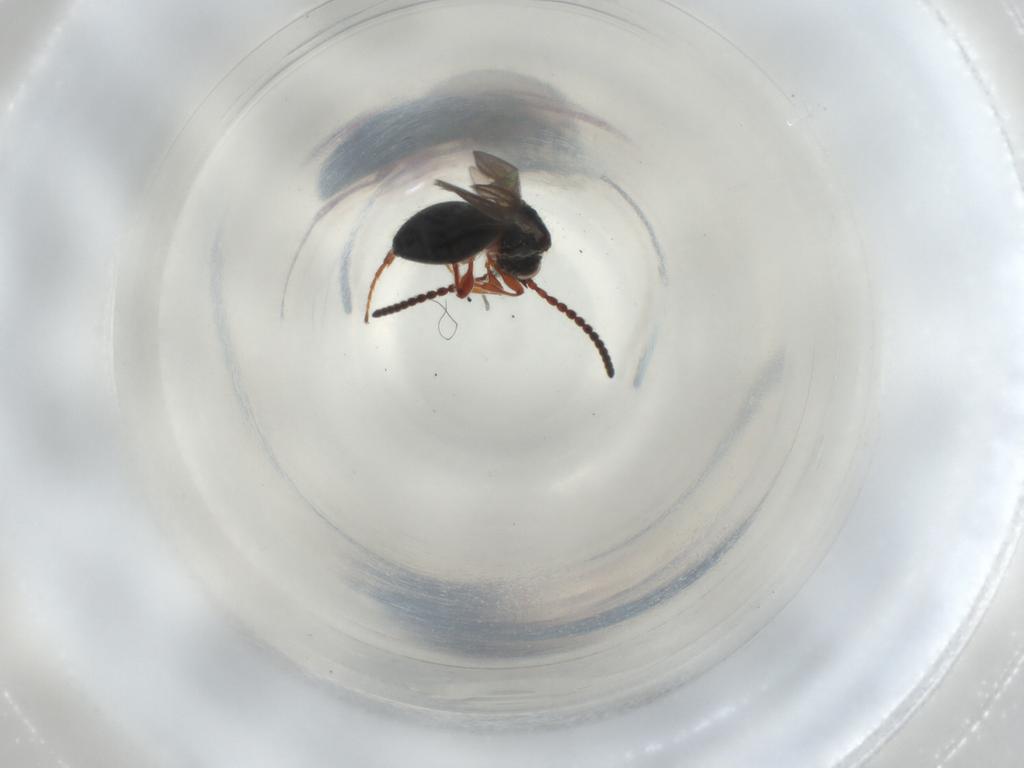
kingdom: Animalia
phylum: Arthropoda
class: Insecta
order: Hymenoptera
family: Diapriidae
